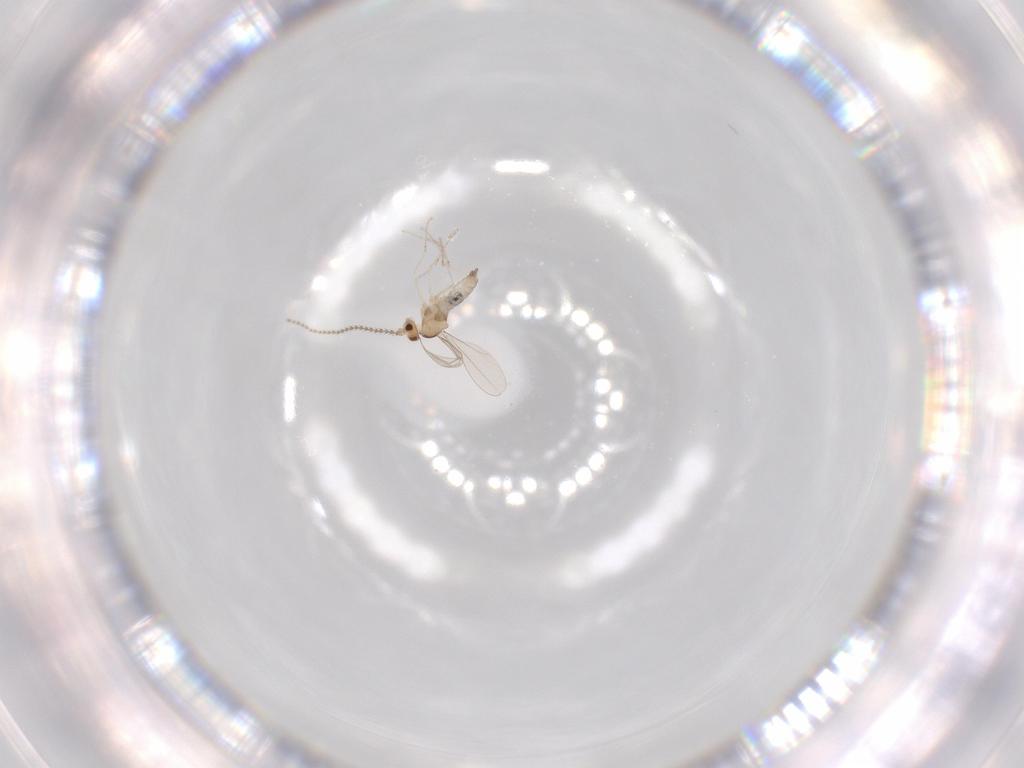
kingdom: Animalia
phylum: Arthropoda
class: Insecta
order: Diptera
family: Cecidomyiidae
